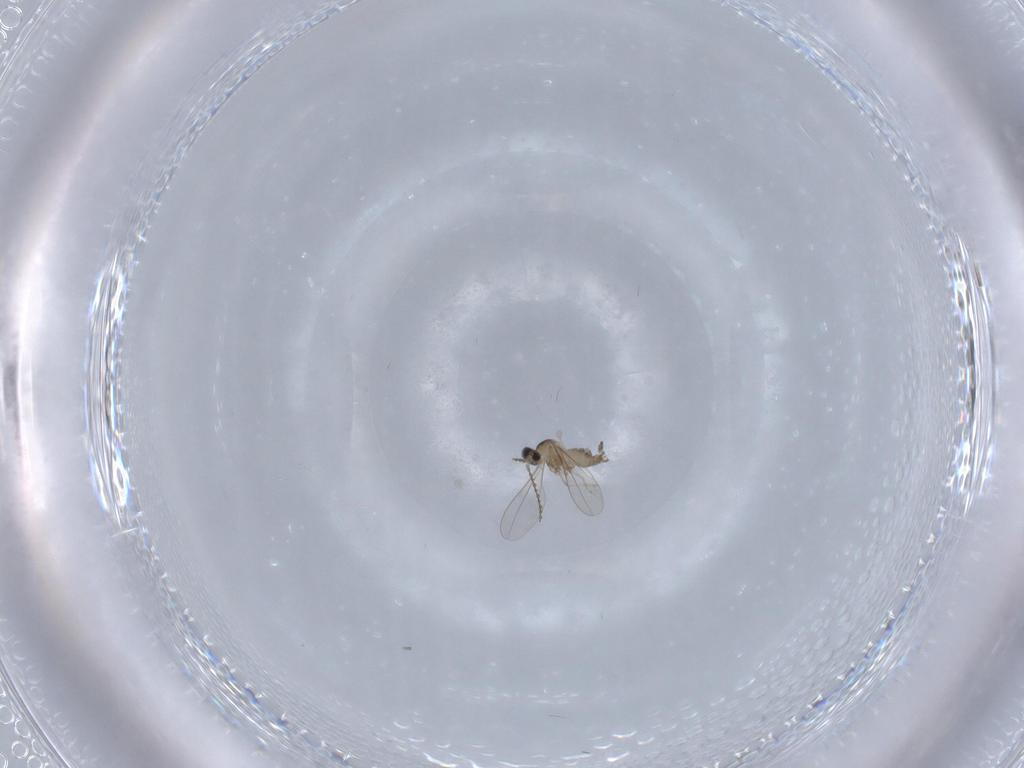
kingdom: Animalia
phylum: Arthropoda
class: Insecta
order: Diptera
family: Cecidomyiidae
